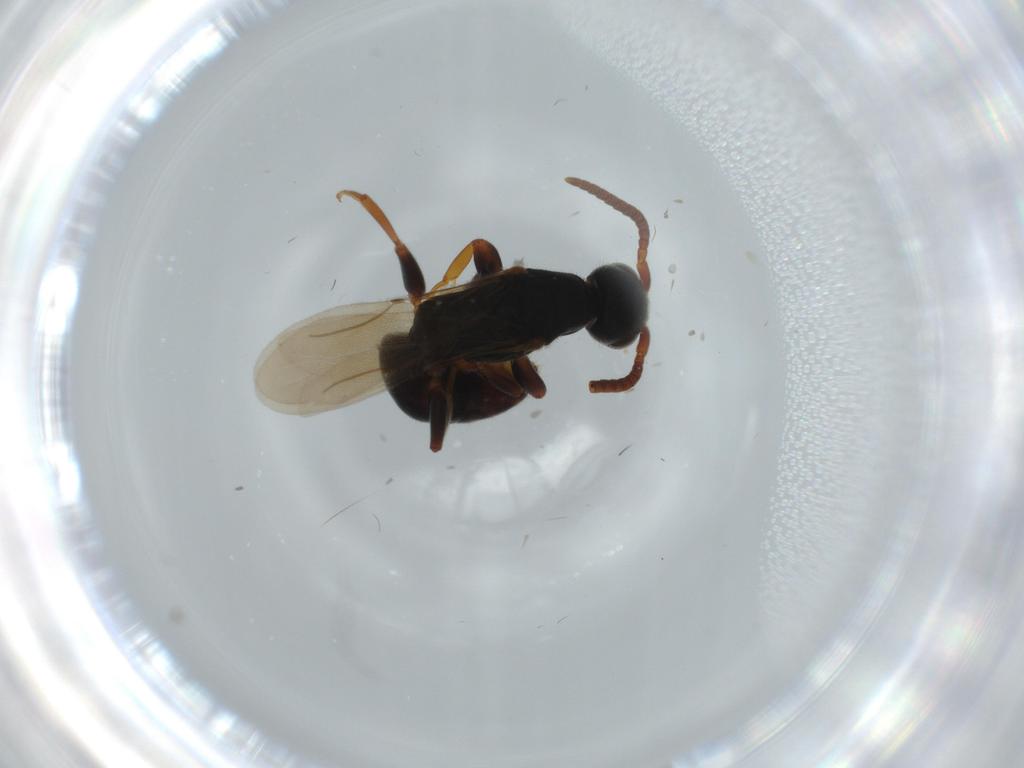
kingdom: Animalia
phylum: Arthropoda
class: Insecta
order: Hymenoptera
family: Bethylidae
